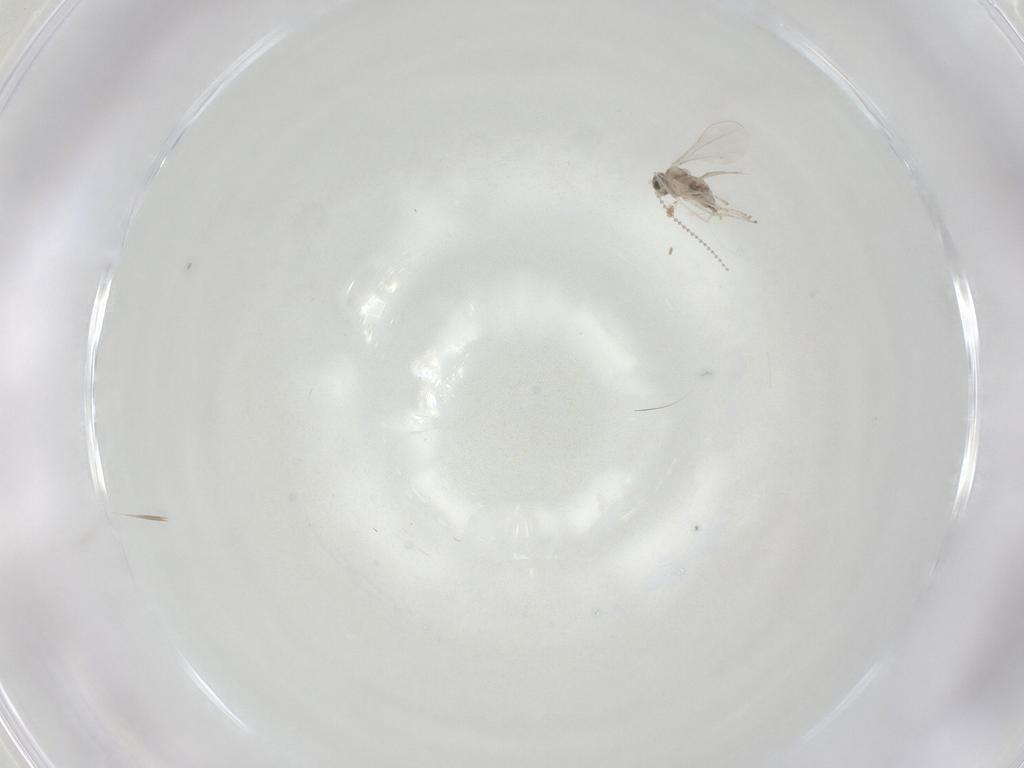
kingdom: Animalia
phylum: Arthropoda
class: Insecta
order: Diptera
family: Cecidomyiidae
